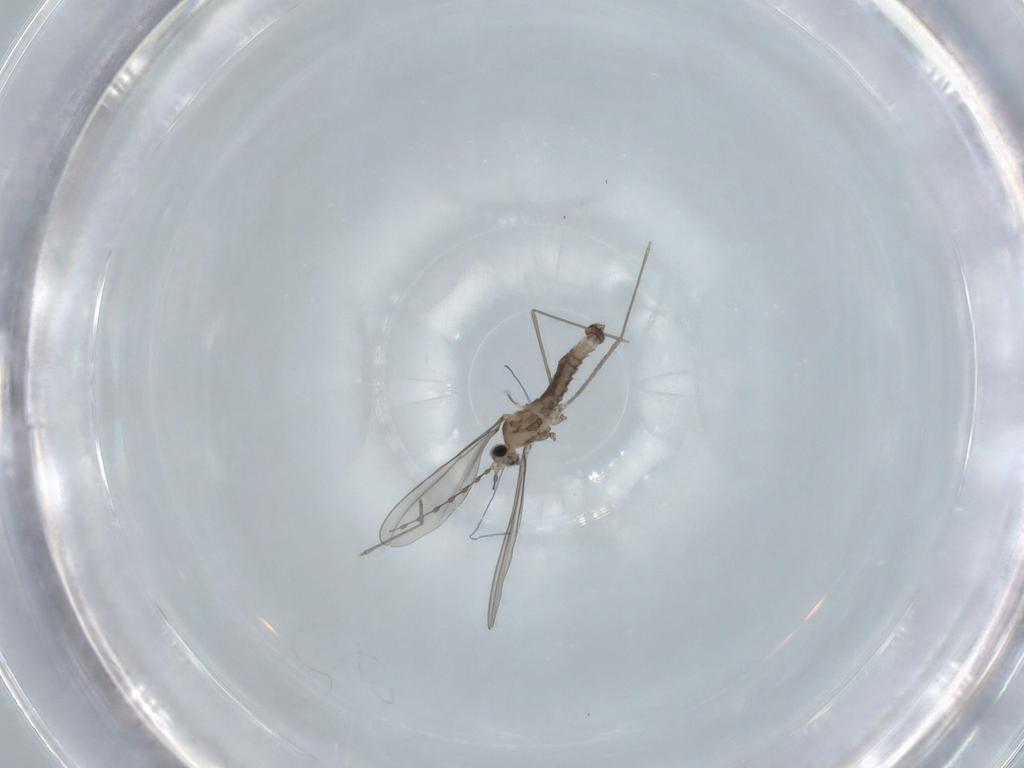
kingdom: Animalia
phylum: Arthropoda
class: Insecta
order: Diptera
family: Cecidomyiidae
